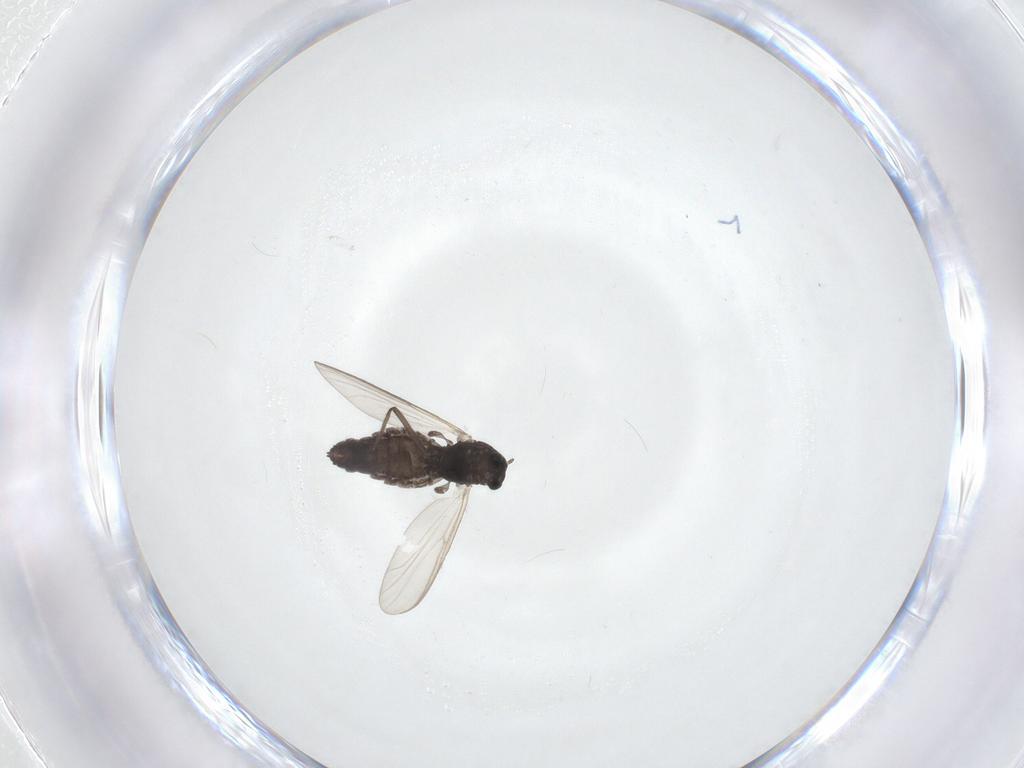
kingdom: Animalia
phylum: Arthropoda
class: Insecta
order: Diptera
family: Chironomidae
